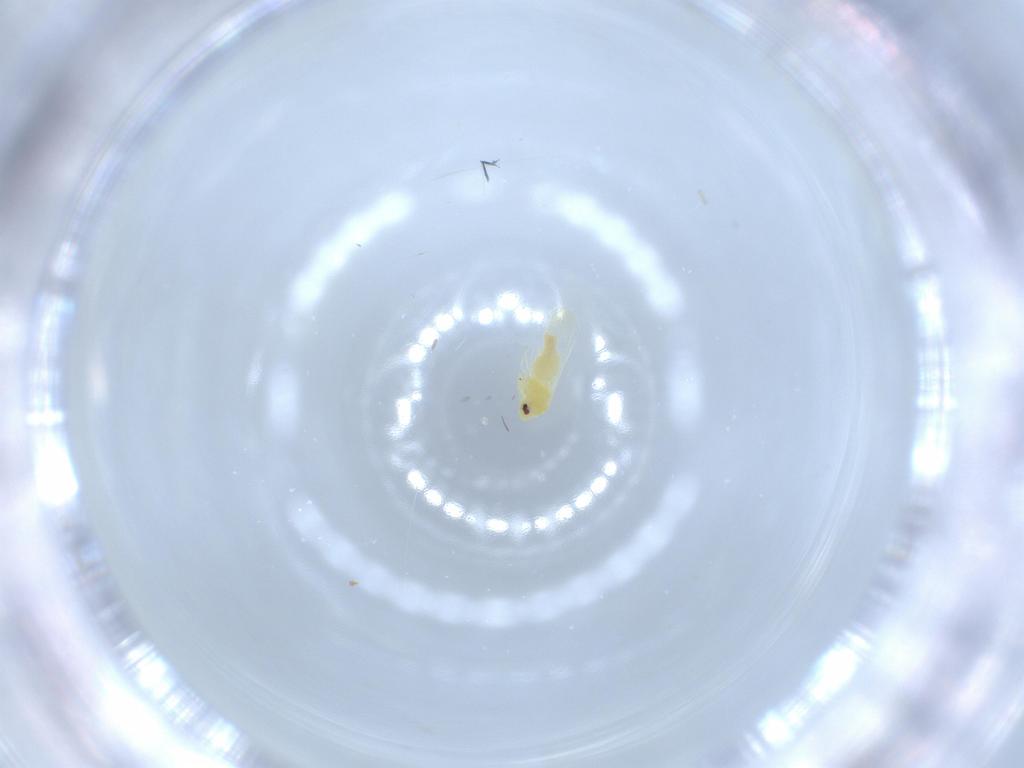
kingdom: Animalia
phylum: Arthropoda
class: Insecta
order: Hemiptera
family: Aleyrodidae
